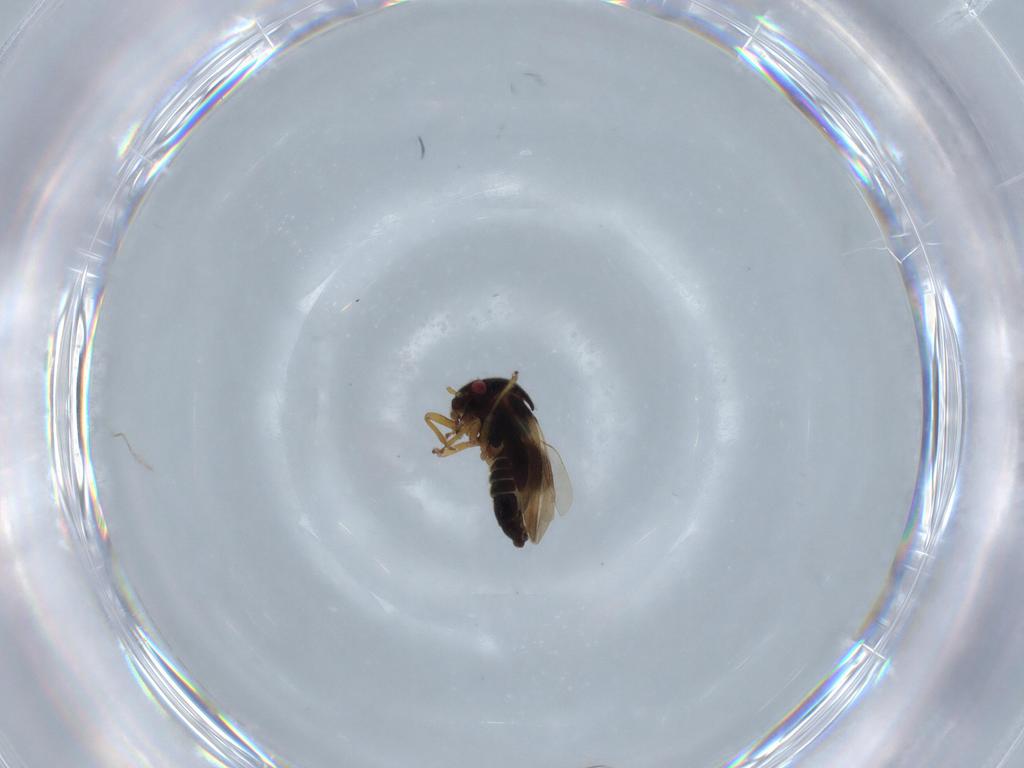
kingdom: Animalia
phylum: Arthropoda
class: Insecta
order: Hemiptera
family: Schizopteridae
